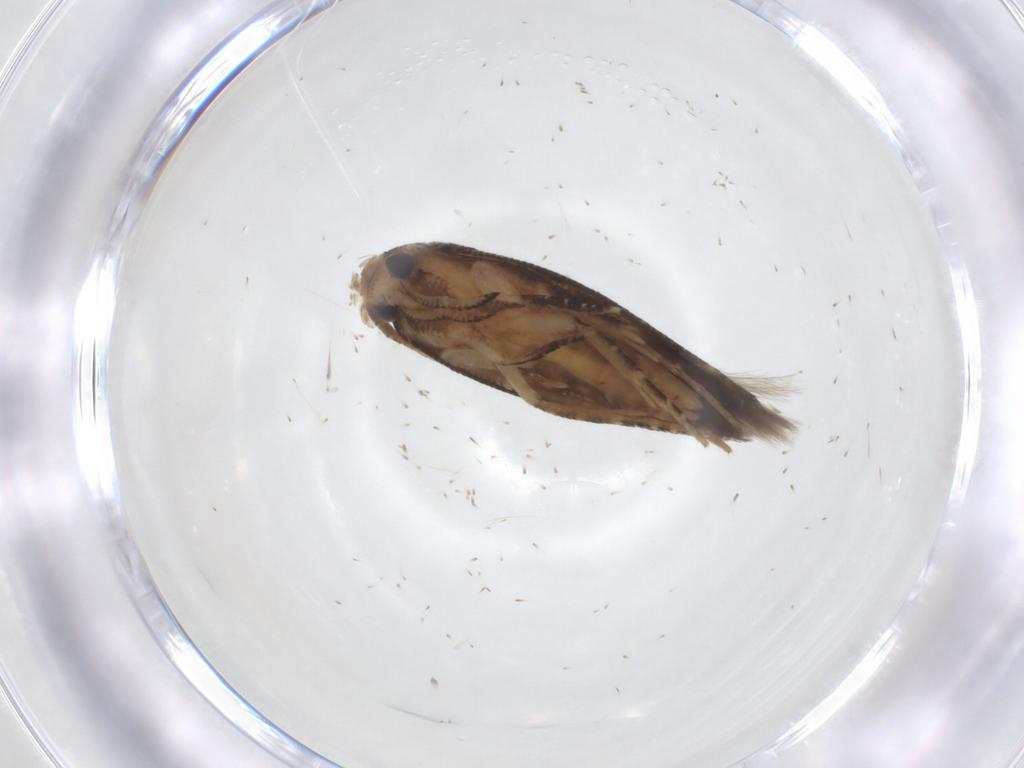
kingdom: Animalia
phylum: Arthropoda
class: Insecta
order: Lepidoptera
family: Gelechiidae
